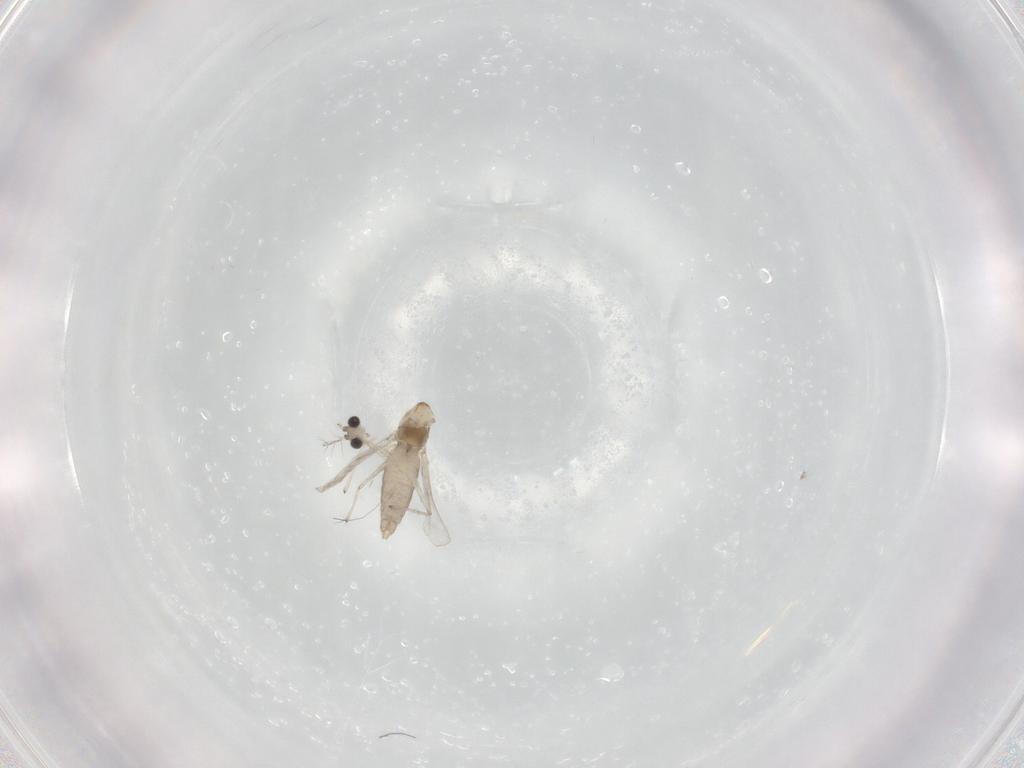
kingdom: Animalia
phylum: Arthropoda
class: Insecta
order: Diptera
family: Chironomidae
